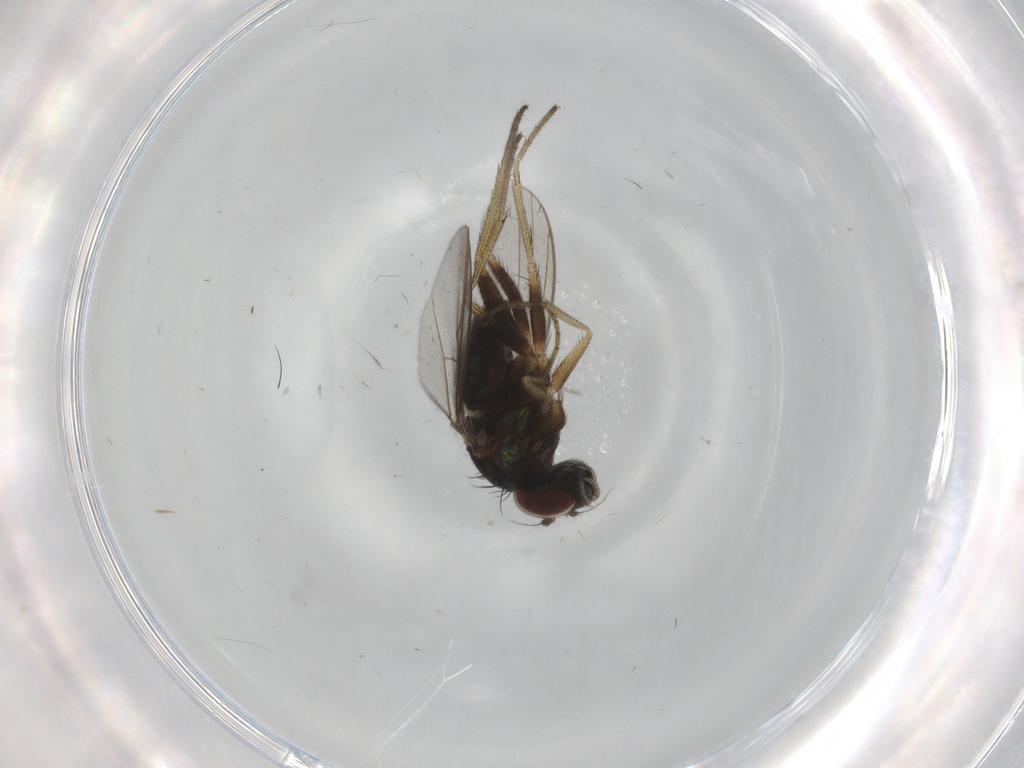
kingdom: Animalia
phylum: Arthropoda
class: Insecta
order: Diptera
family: Dolichopodidae
